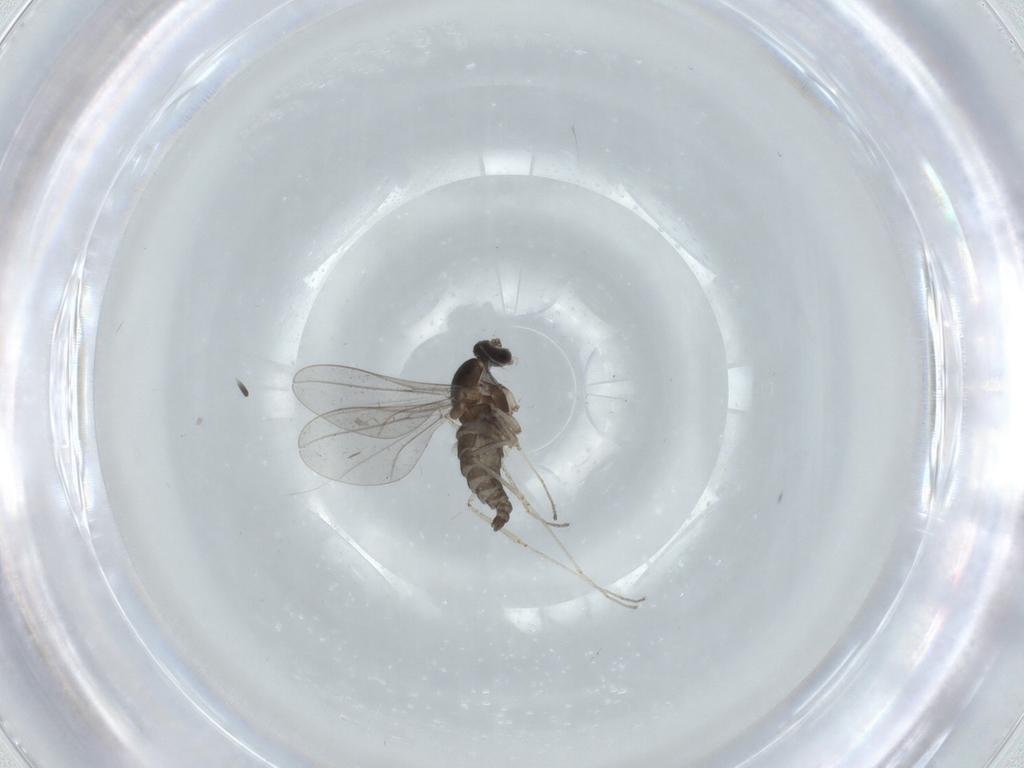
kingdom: Animalia
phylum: Arthropoda
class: Insecta
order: Diptera
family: Cecidomyiidae
